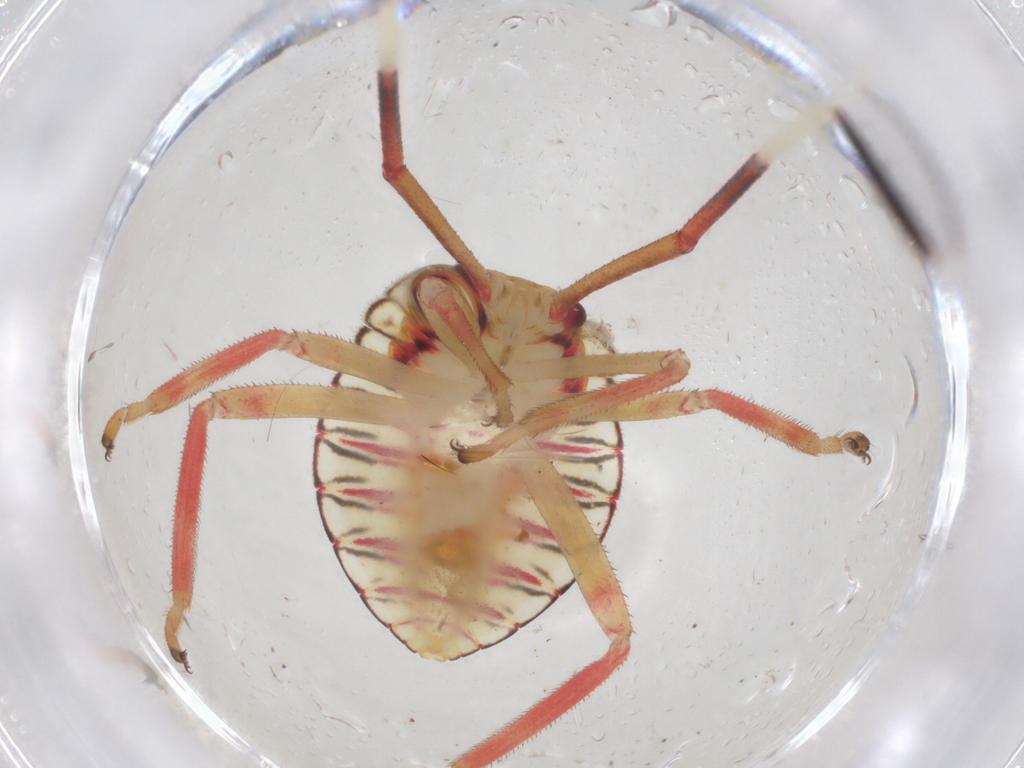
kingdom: Animalia
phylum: Arthropoda
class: Insecta
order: Hemiptera
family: Coreidae
